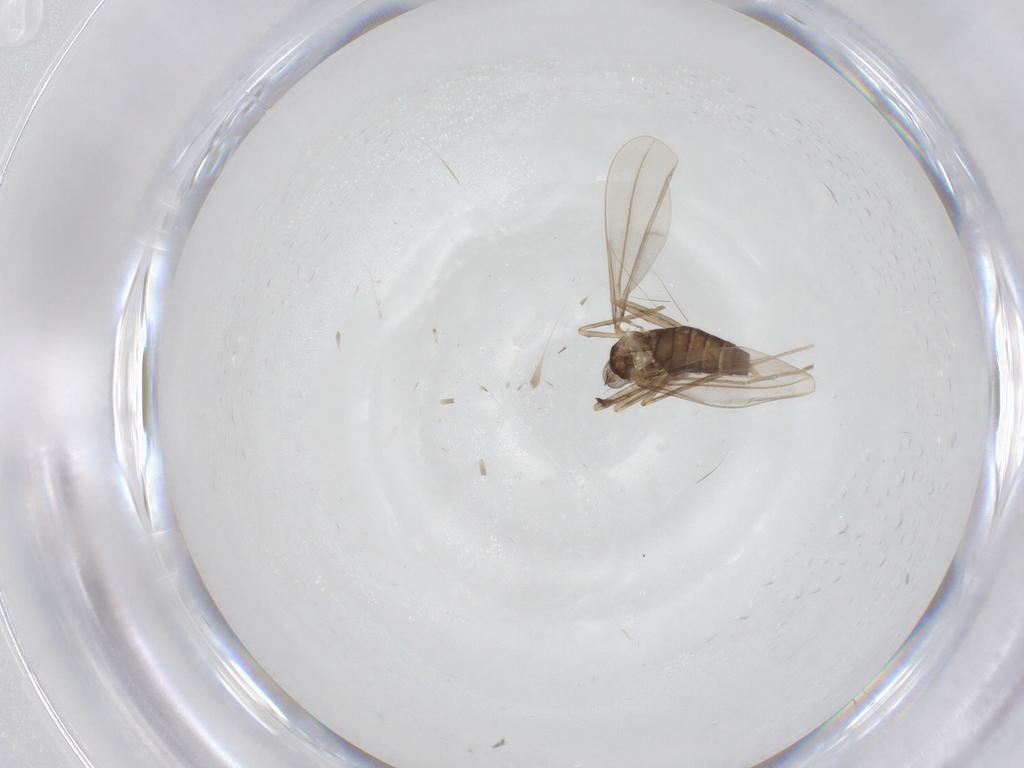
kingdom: Animalia
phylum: Arthropoda
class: Insecta
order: Diptera
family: Cecidomyiidae
